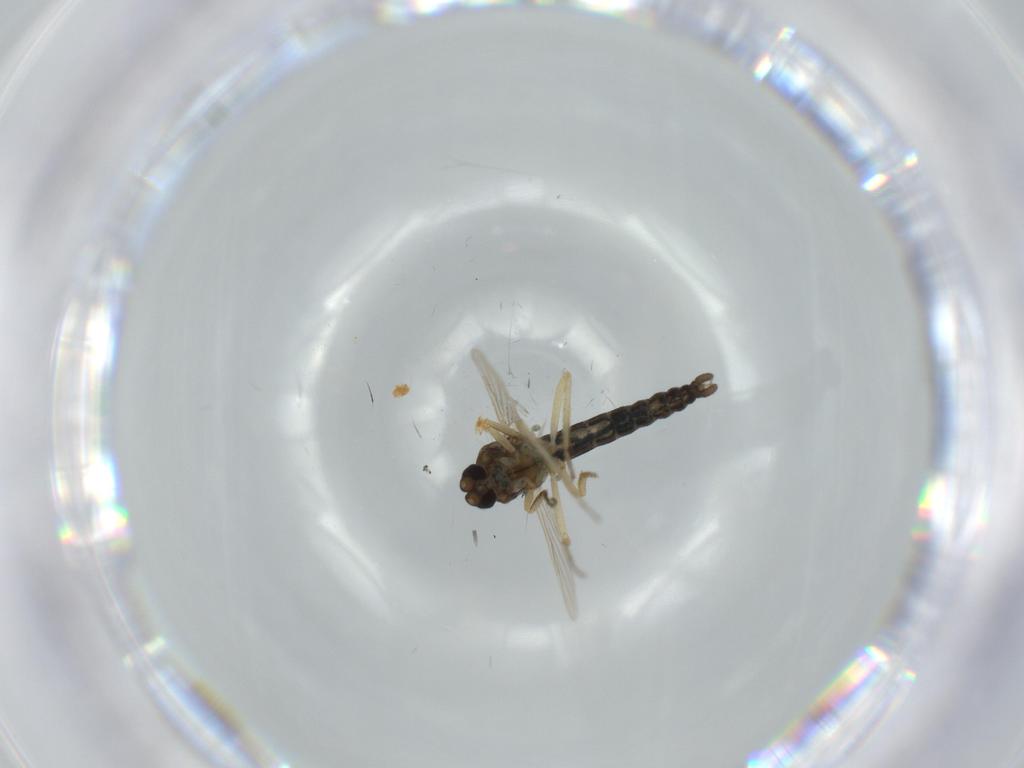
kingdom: Animalia
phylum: Arthropoda
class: Insecta
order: Diptera
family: Ceratopogonidae
